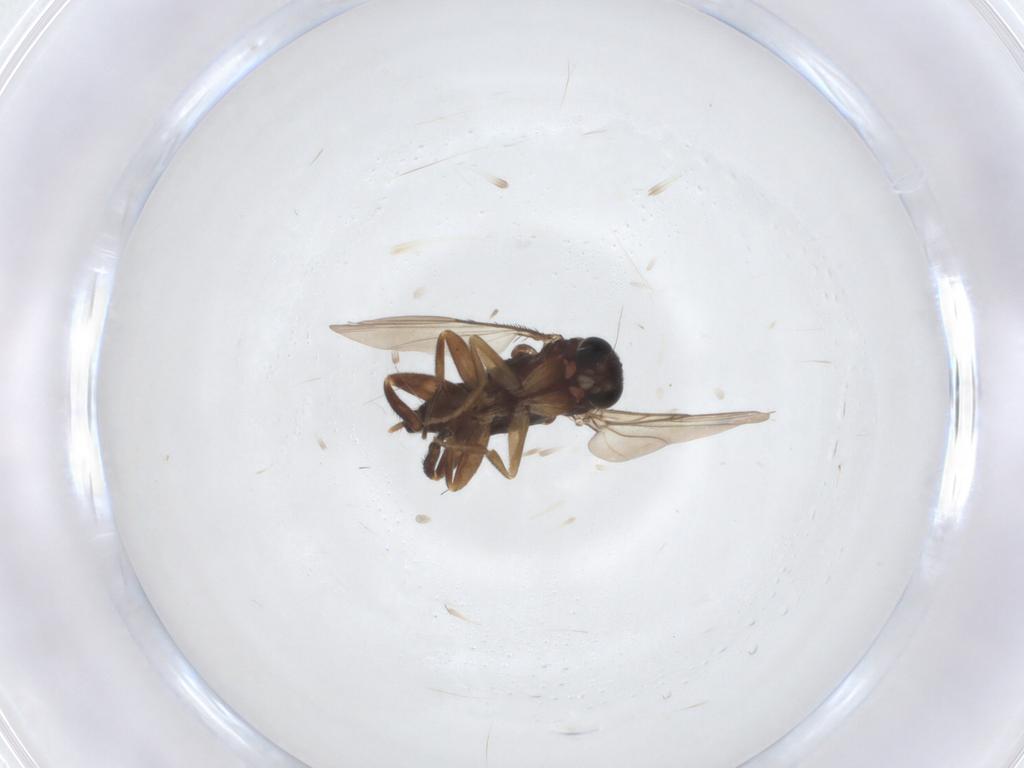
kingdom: Animalia
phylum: Arthropoda
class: Insecta
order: Diptera
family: Phoridae
